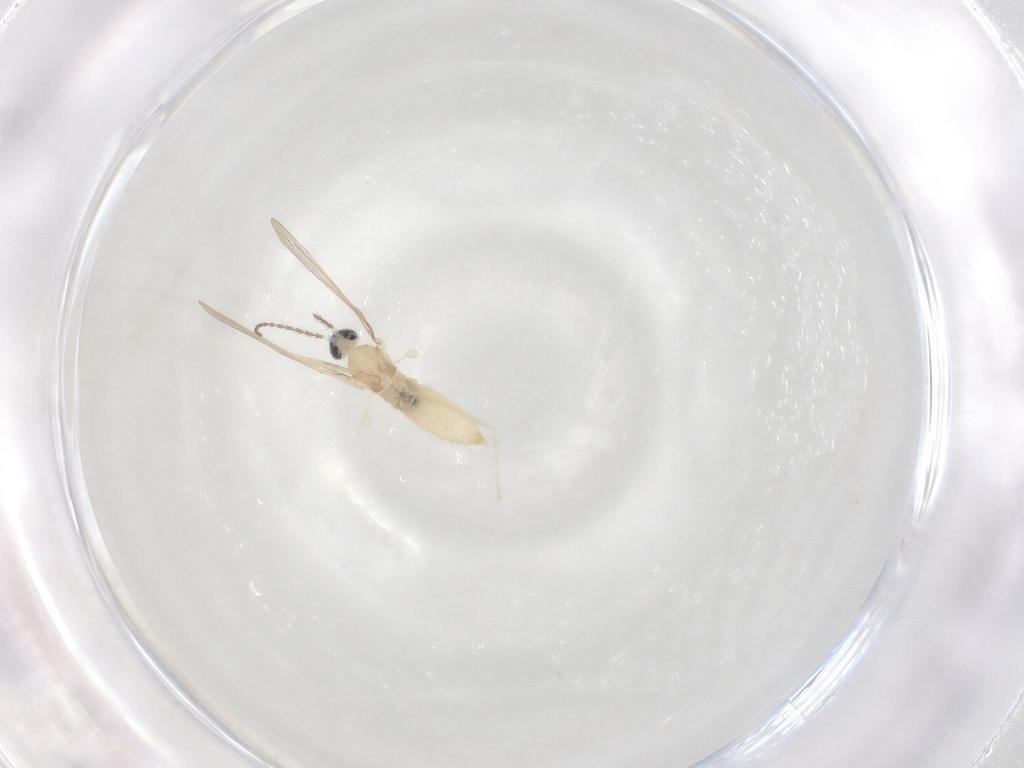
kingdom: Animalia
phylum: Arthropoda
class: Insecta
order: Diptera
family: Cecidomyiidae
